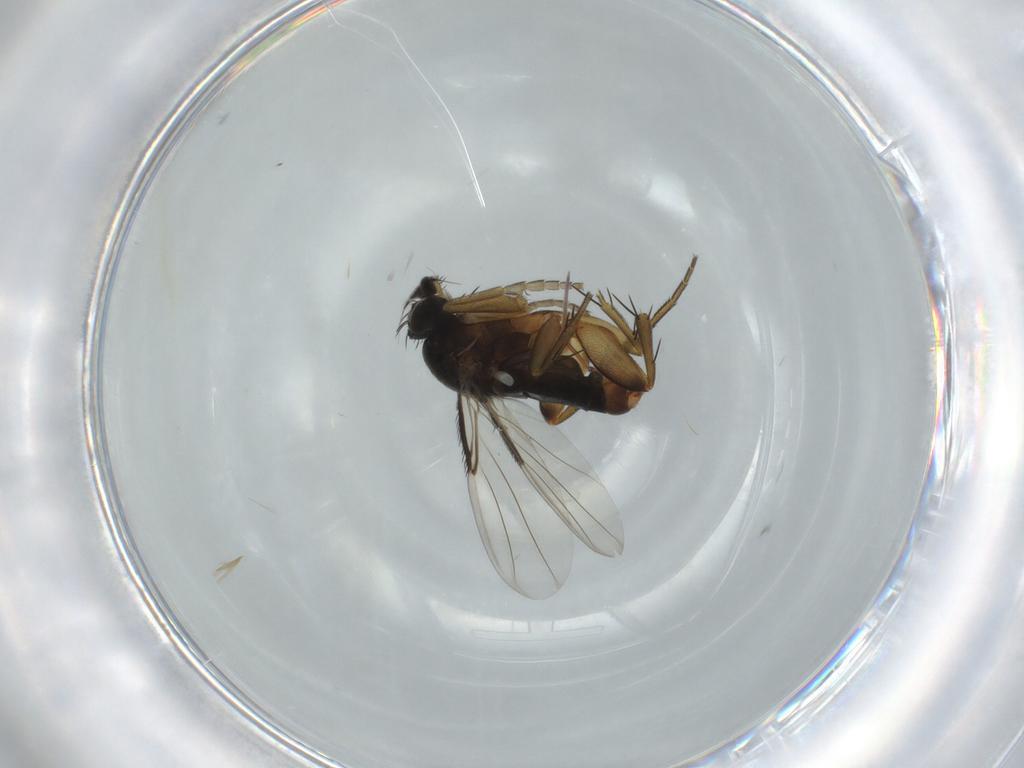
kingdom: Animalia
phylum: Arthropoda
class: Insecta
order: Diptera
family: Phoridae
